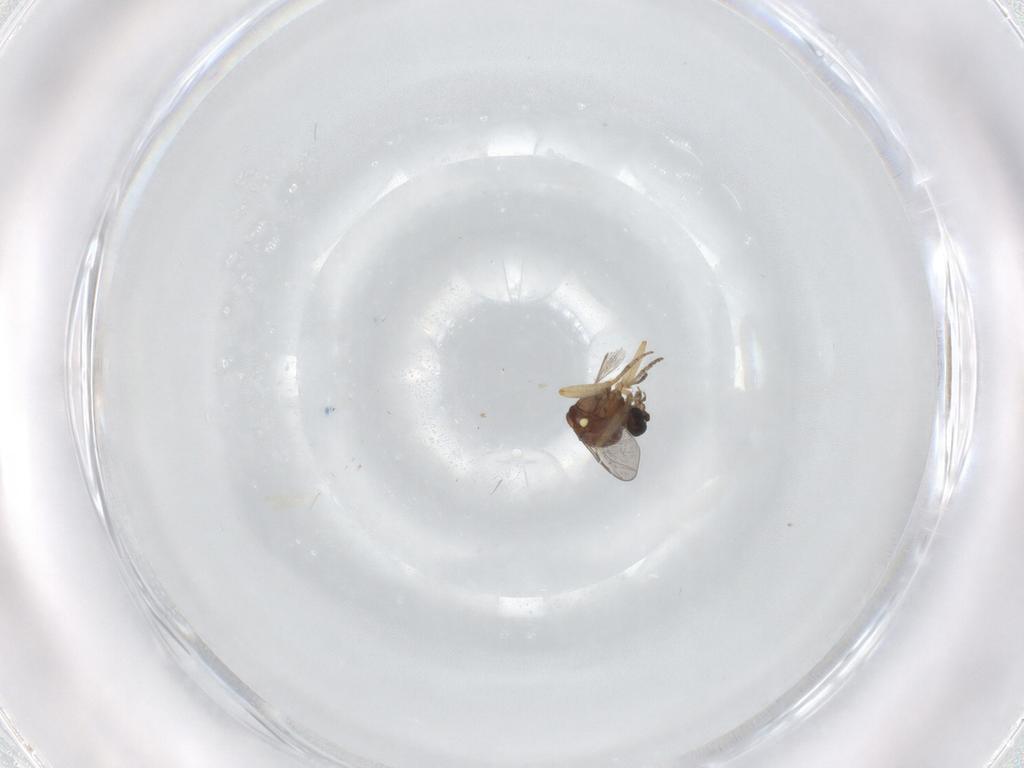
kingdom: Animalia
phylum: Arthropoda
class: Insecta
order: Diptera
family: Ceratopogonidae
